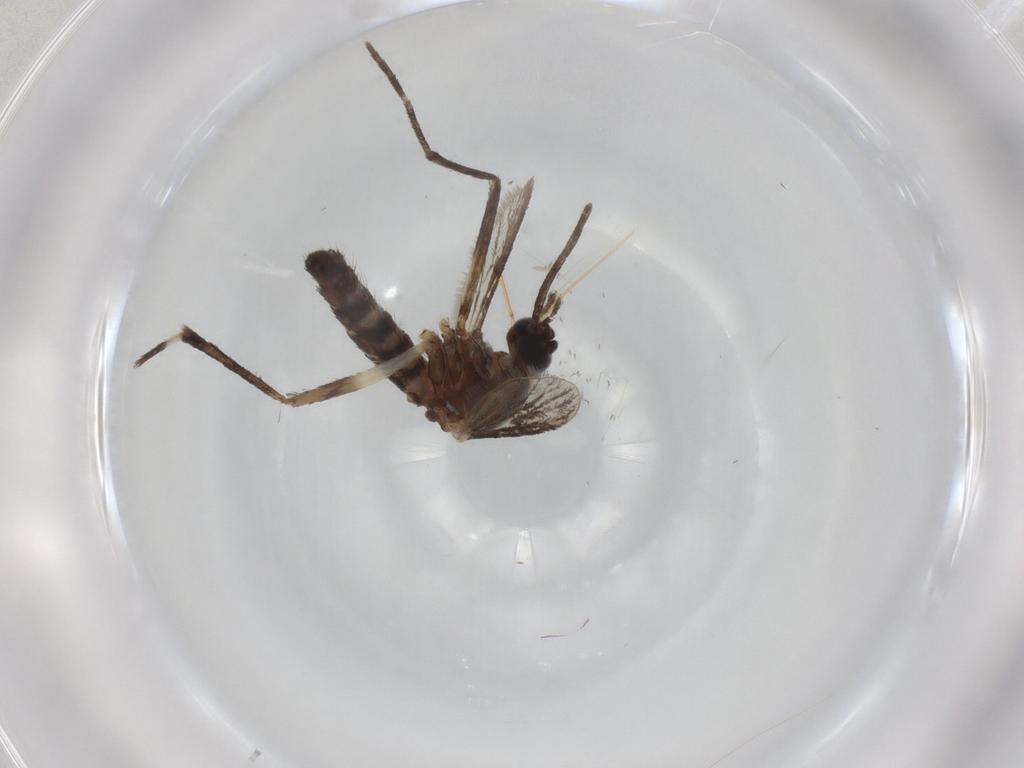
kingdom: Animalia
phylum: Arthropoda
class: Insecta
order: Diptera
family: Culicidae
